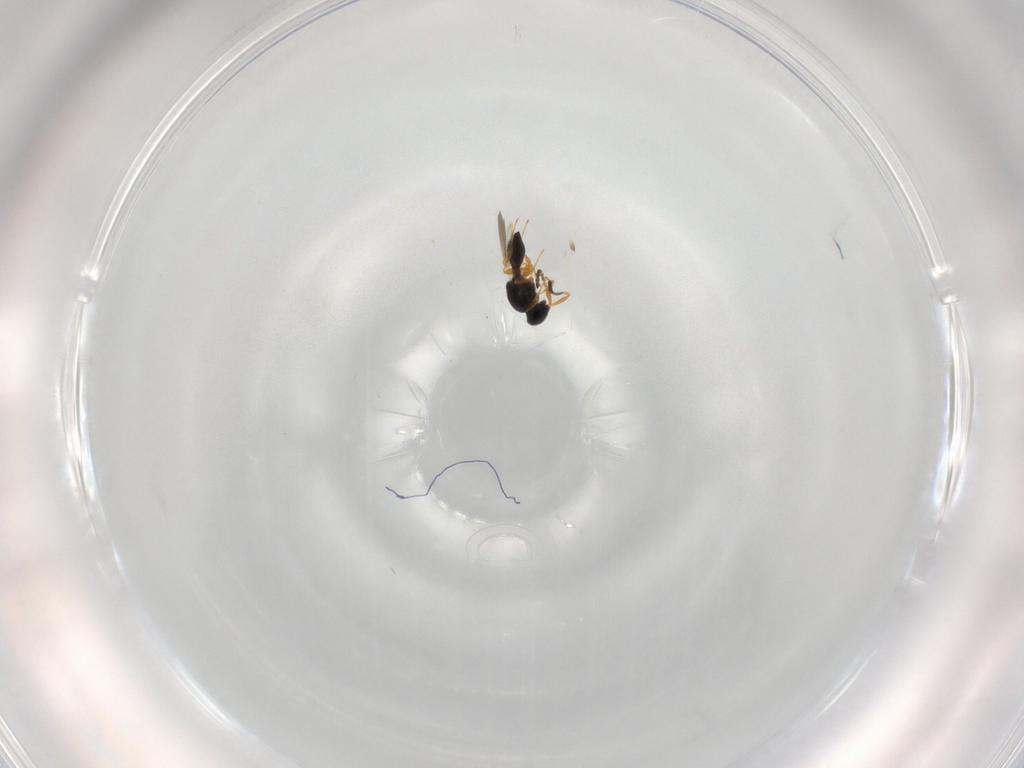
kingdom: Animalia
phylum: Arthropoda
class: Insecta
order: Hymenoptera
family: Platygastridae
